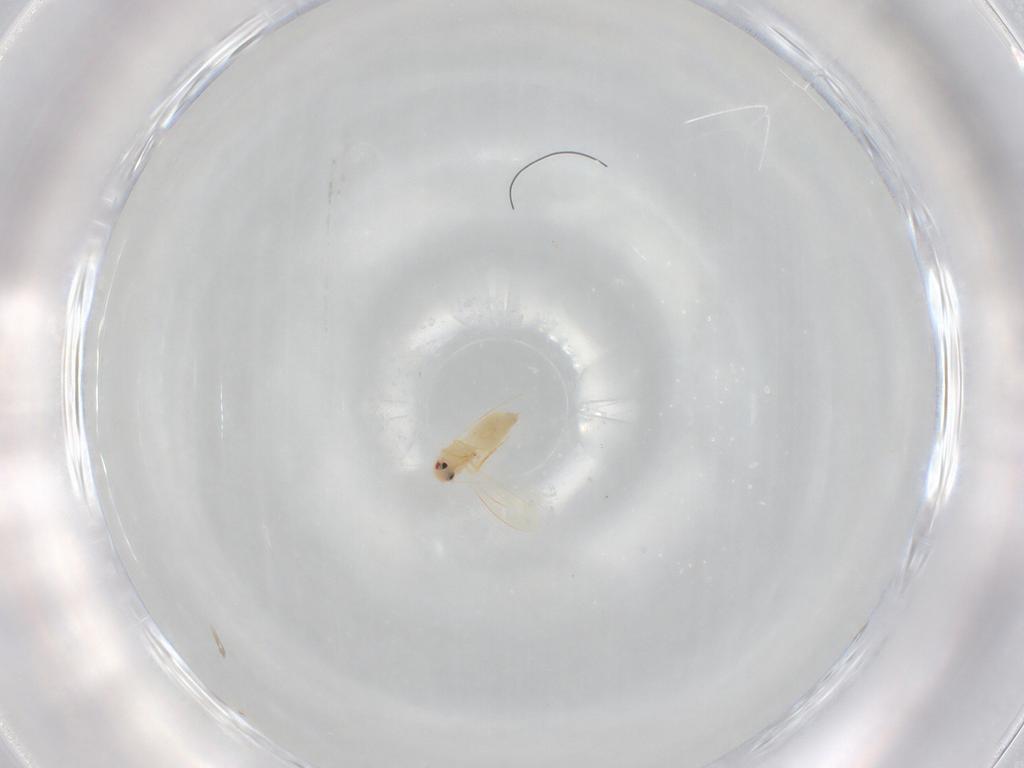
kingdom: Animalia
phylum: Arthropoda
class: Insecta
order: Hemiptera
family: Aleyrodidae
